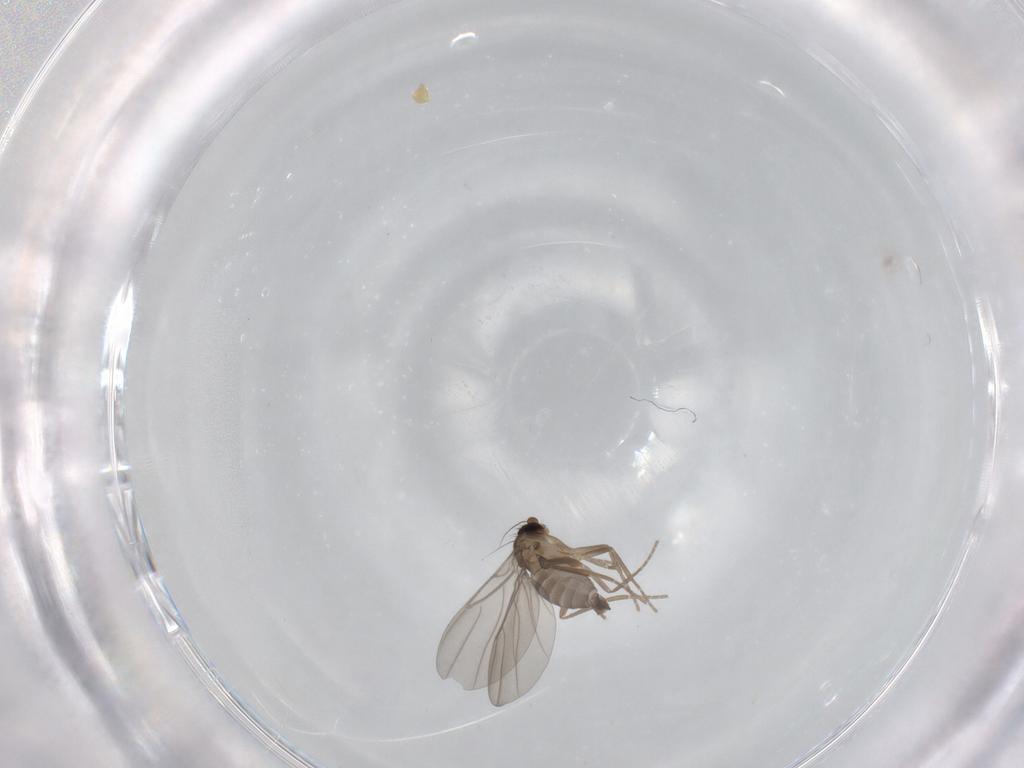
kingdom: Animalia
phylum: Arthropoda
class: Insecta
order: Diptera
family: Phoridae
